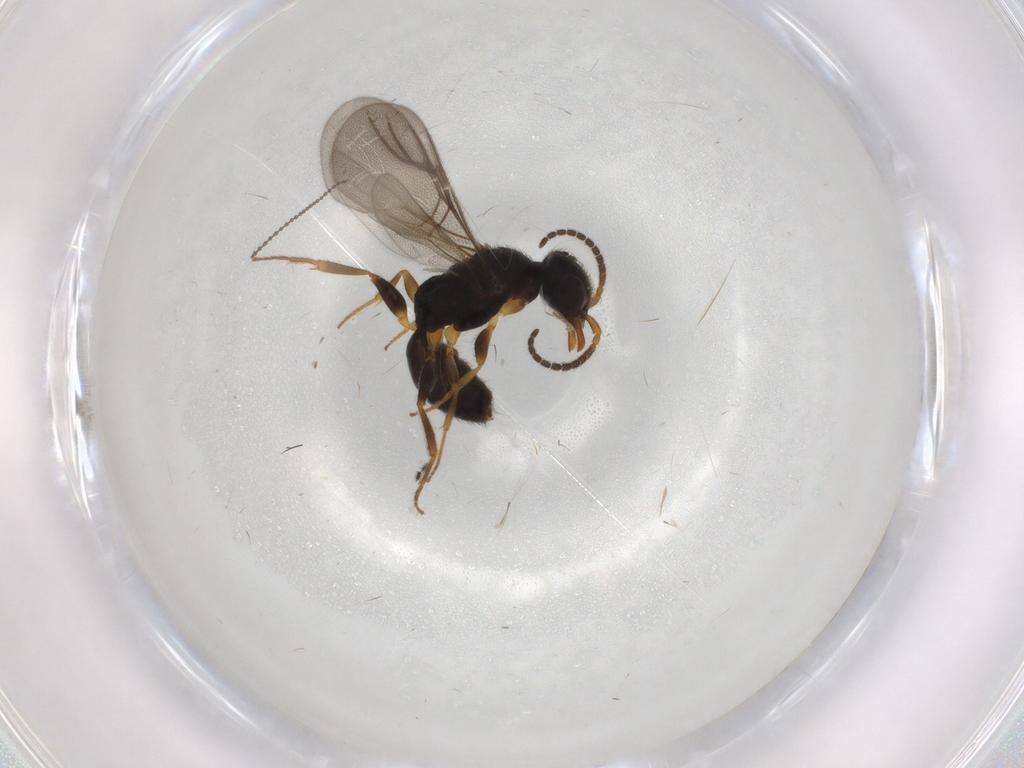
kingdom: Animalia
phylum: Arthropoda
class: Insecta
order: Hymenoptera
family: Bethylidae
